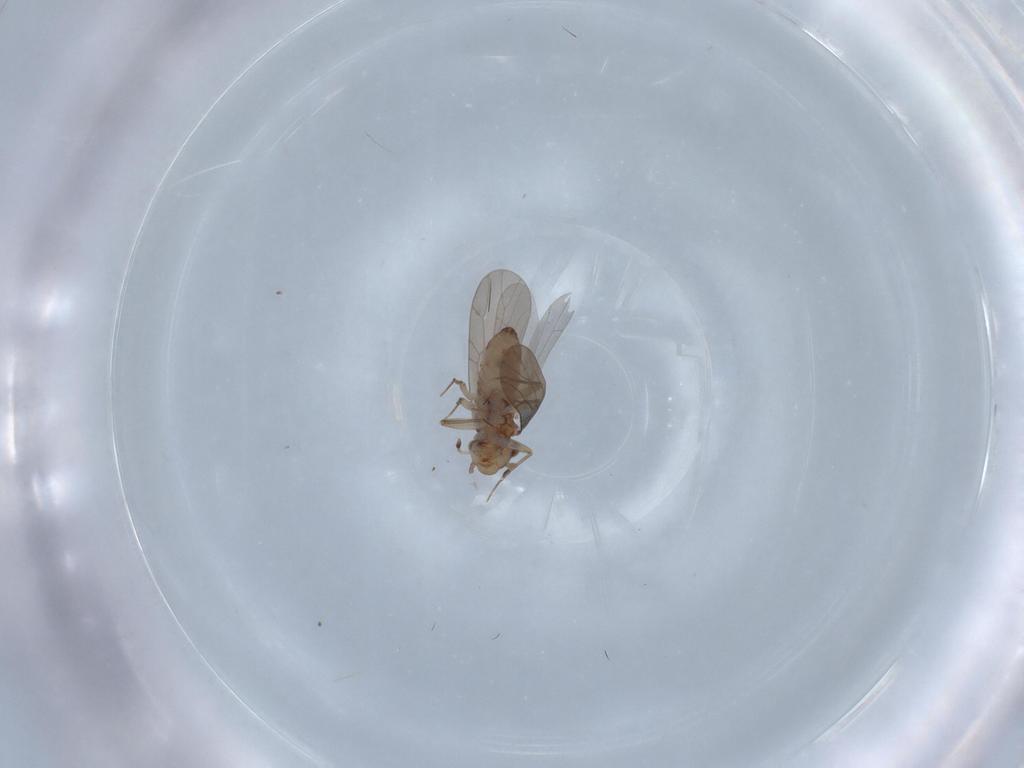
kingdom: Animalia
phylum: Arthropoda
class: Insecta
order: Psocodea
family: Lepidopsocidae
